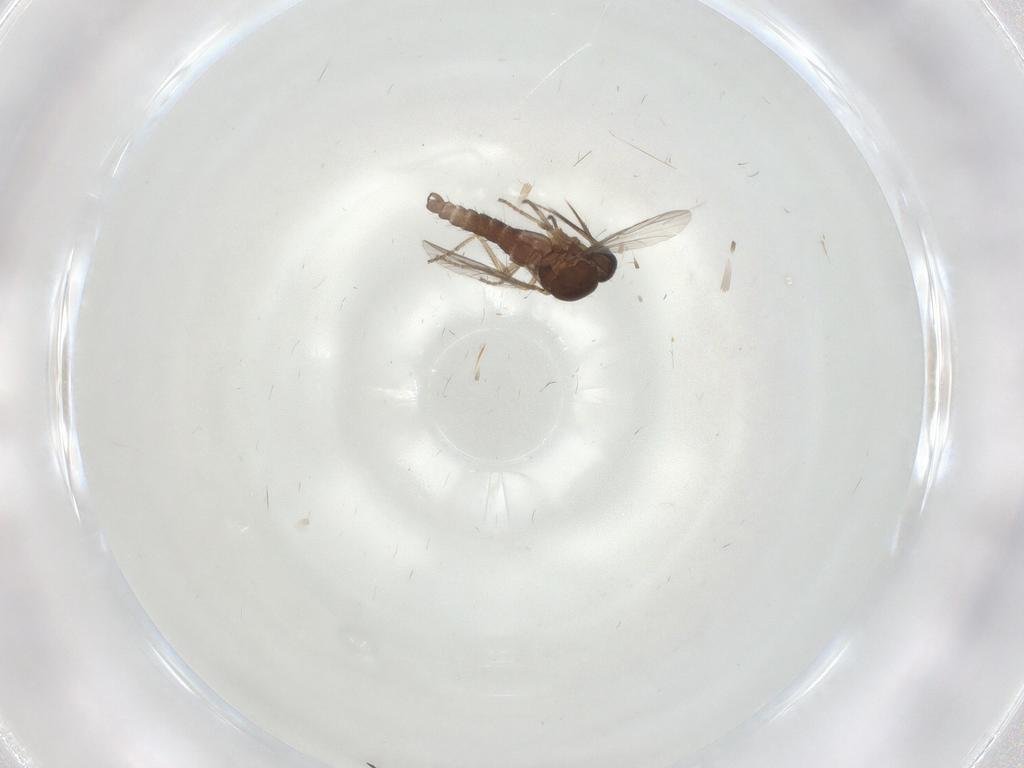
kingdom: Animalia
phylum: Arthropoda
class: Insecta
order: Diptera
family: Ceratopogonidae
